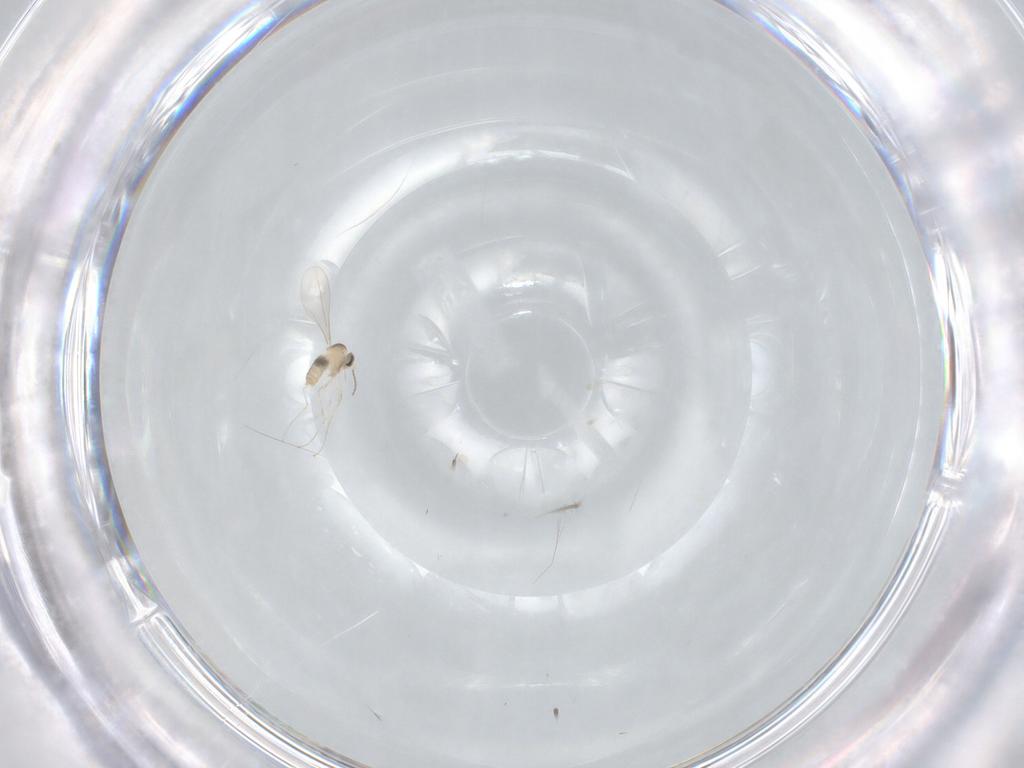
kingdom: Animalia
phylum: Arthropoda
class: Insecta
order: Diptera
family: Cecidomyiidae
